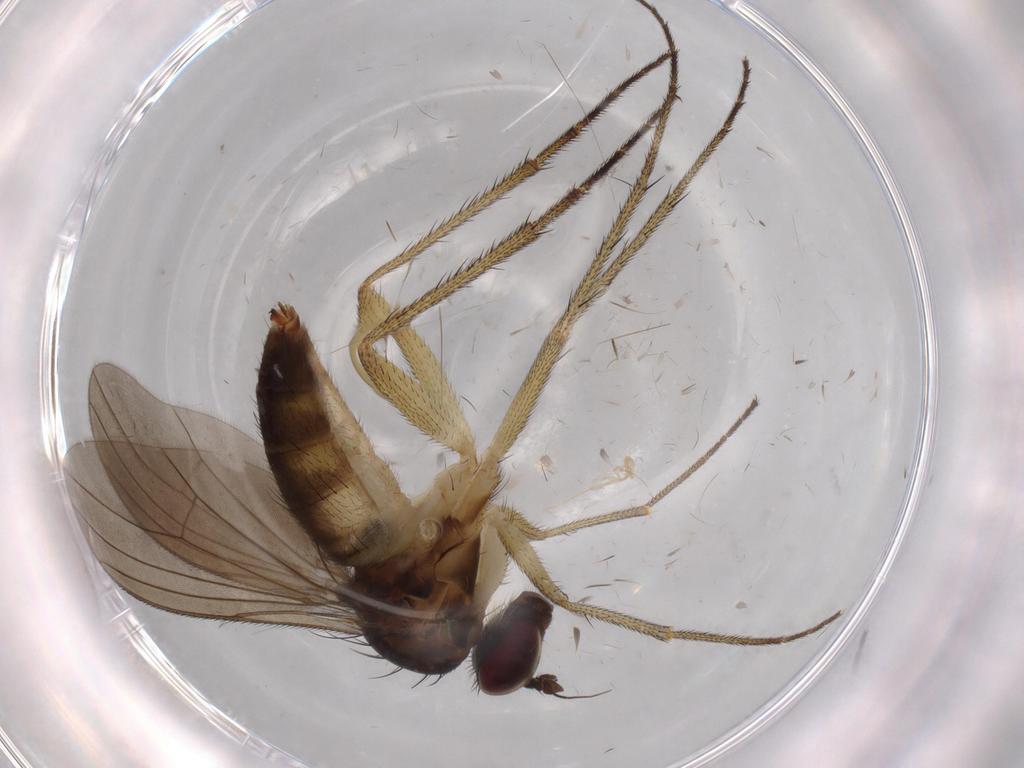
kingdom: Animalia
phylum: Arthropoda
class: Insecta
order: Diptera
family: Dolichopodidae
